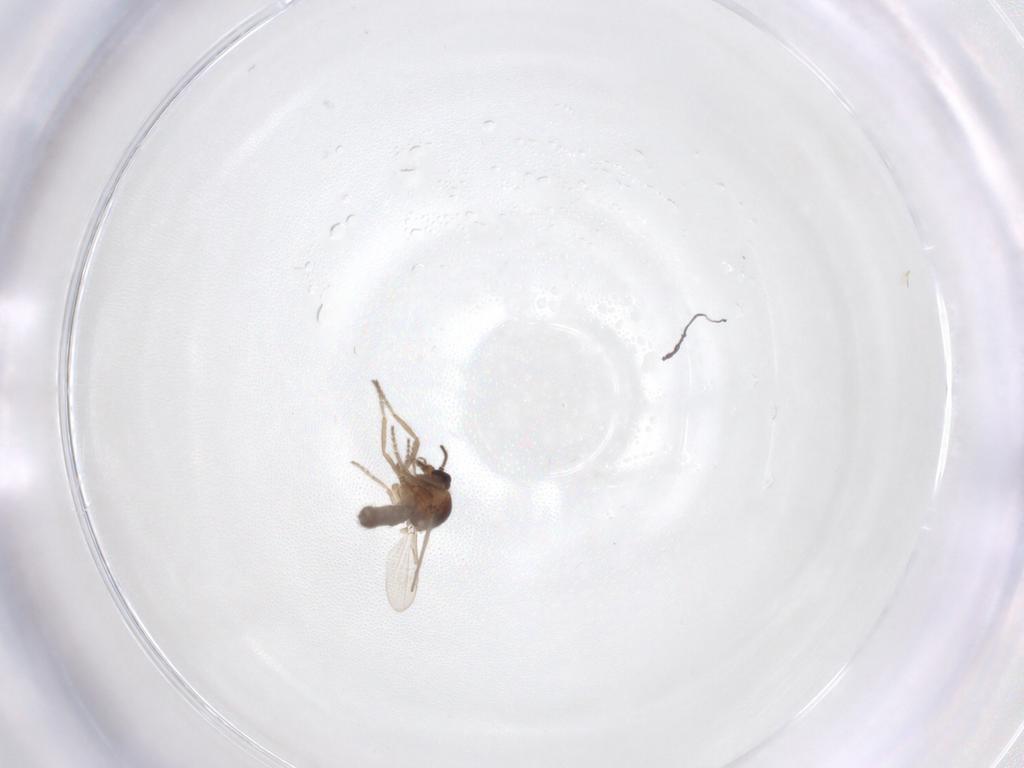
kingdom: Animalia
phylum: Arthropoda
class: Insecta
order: Diptera
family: Ceratopogonidae
